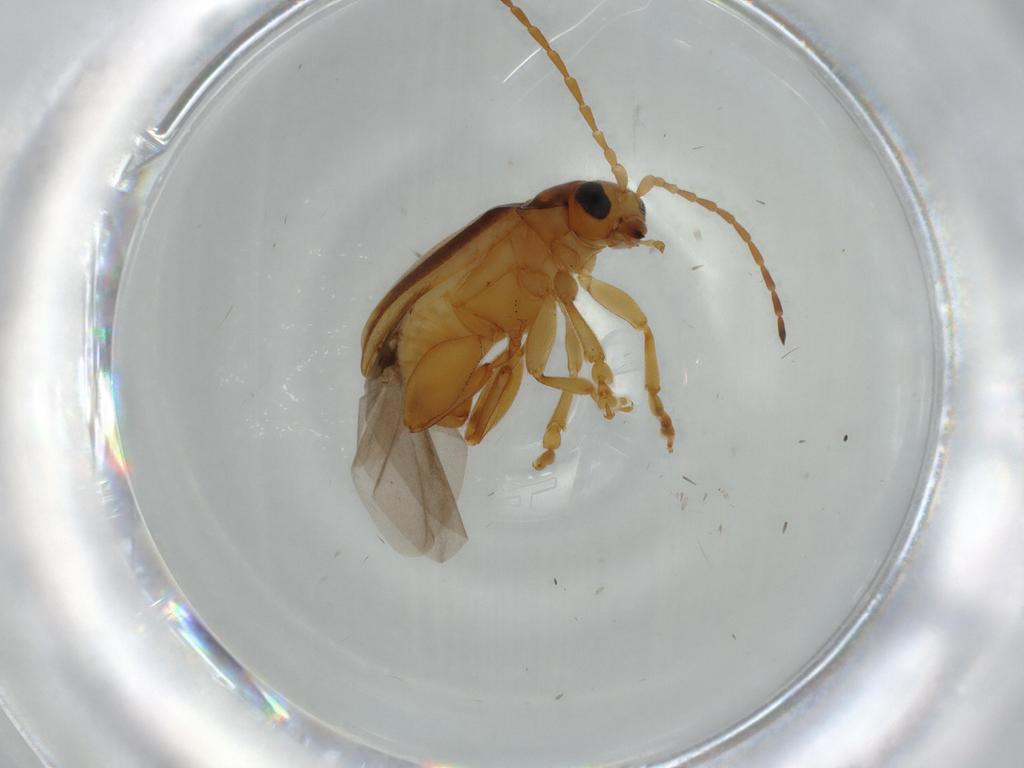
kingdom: Animalia
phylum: Arthropoda
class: Insecta
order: Coleoptera
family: Chrysomelidae
